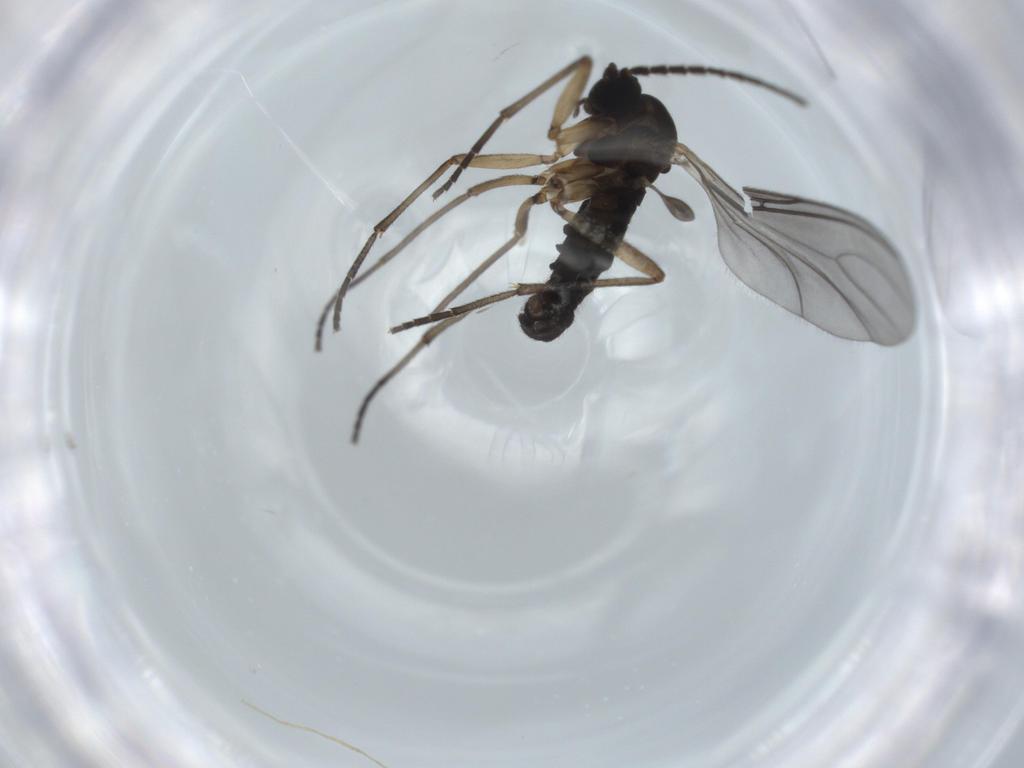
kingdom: Animalia
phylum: Arthropoda
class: Insecta
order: Diptera
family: Sciaridae
